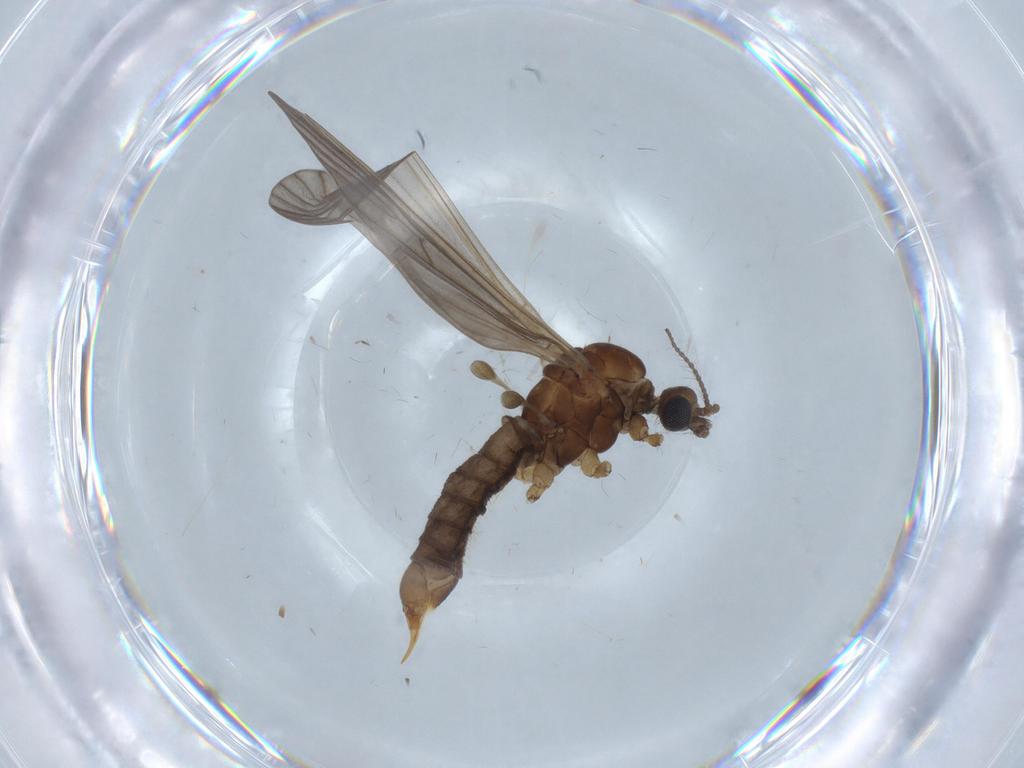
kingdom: Animalia
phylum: Arthropoda
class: Insecta
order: Diptera
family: Phoridae
